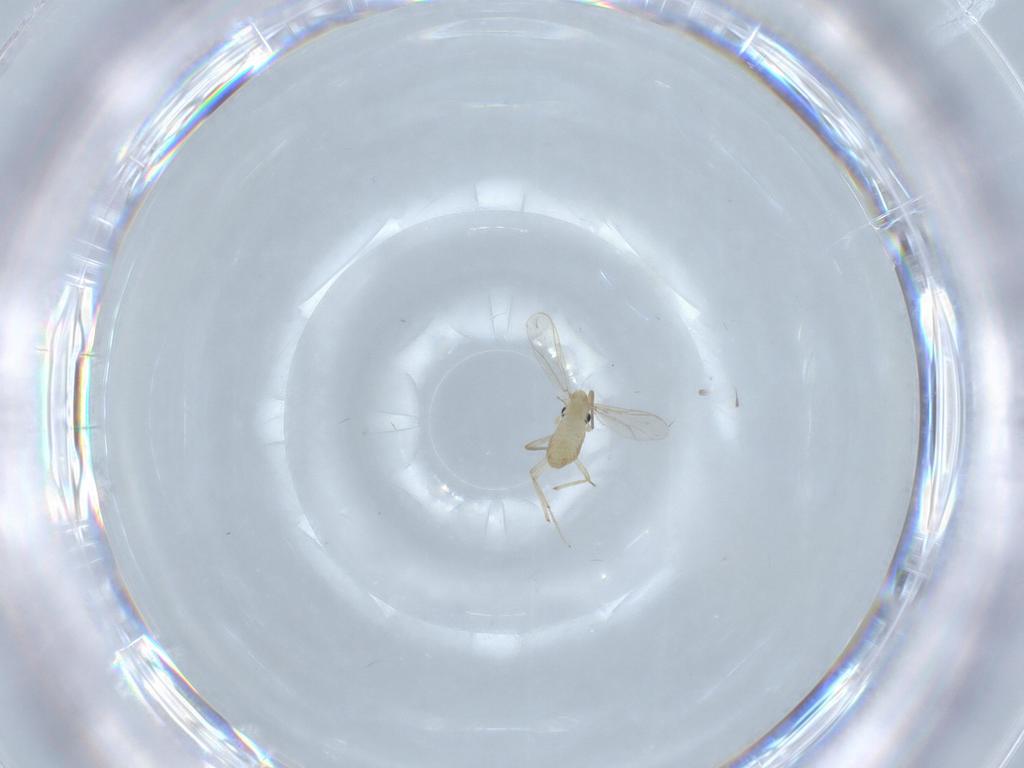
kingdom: Animalia
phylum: Arthropoda
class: Insecta
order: Diptera
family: Chironomidae
